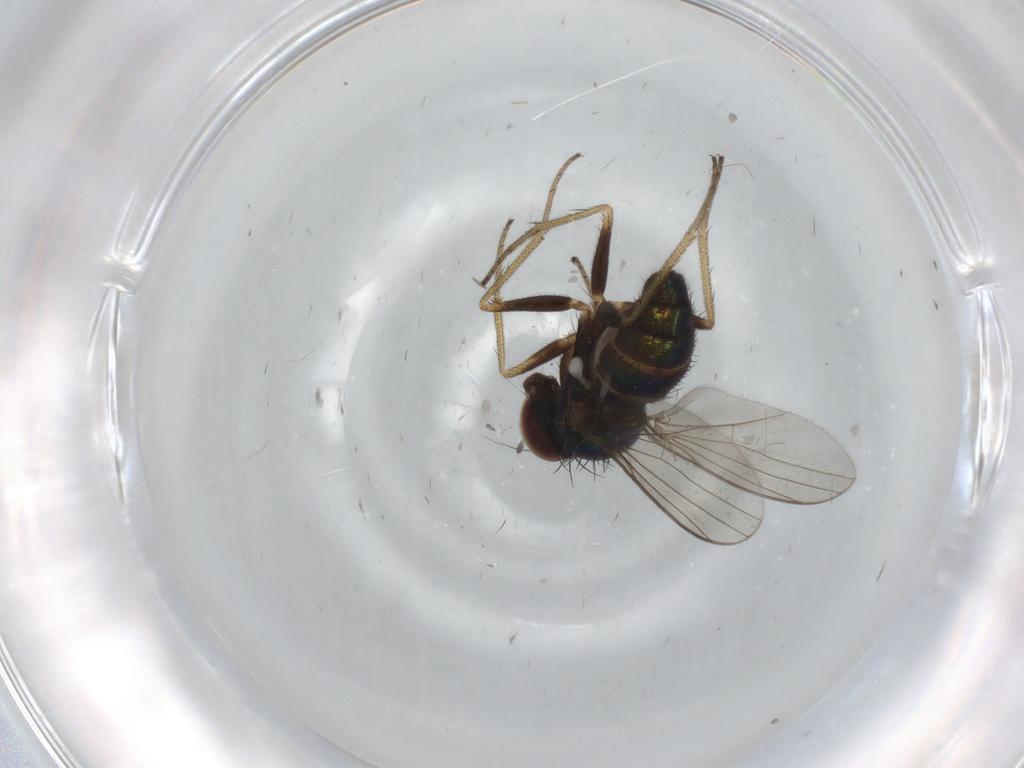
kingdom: Animalia
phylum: Arthropoda
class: Insecta
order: Diptera
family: Dolichopodidae
